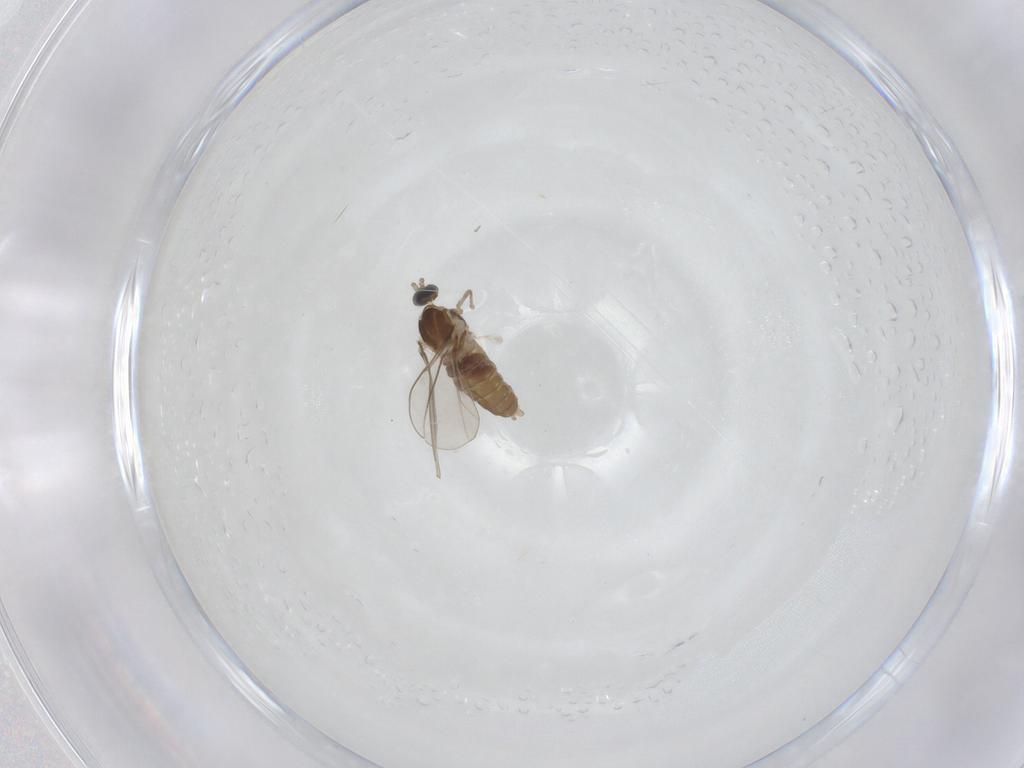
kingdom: Animalia
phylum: Arthropoda
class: Insecta
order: Diptera
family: Cecidomyiidae
